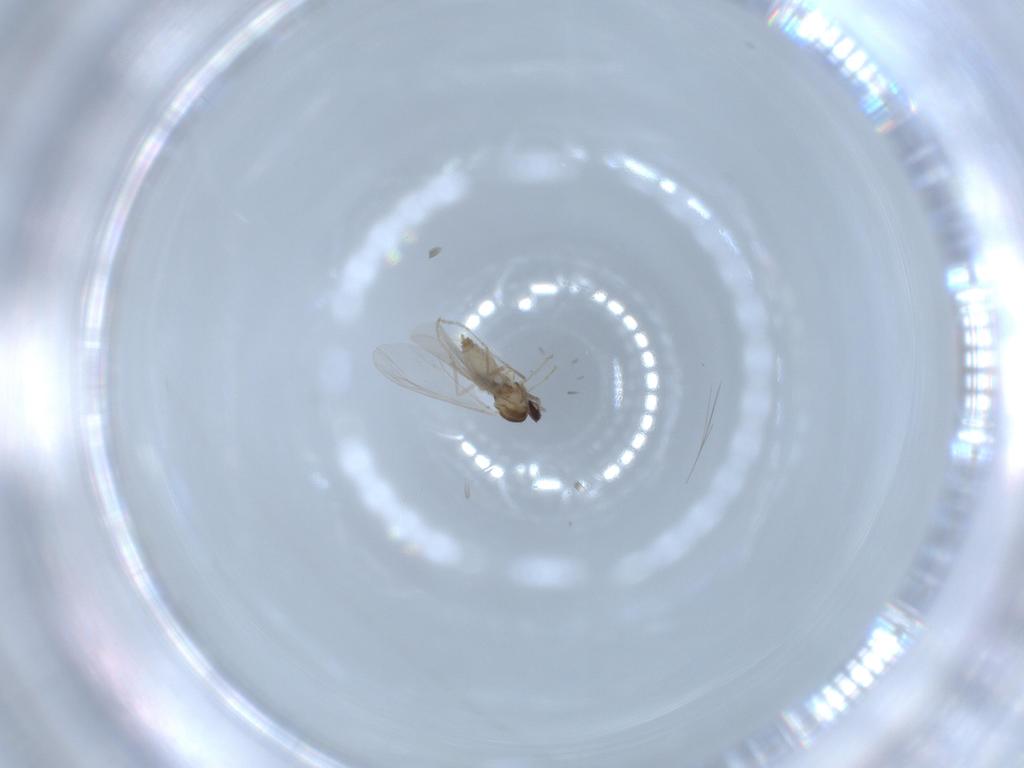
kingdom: Animalia
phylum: Arthropoda
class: Insecta
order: Diptera
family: Cecidomyiidae
